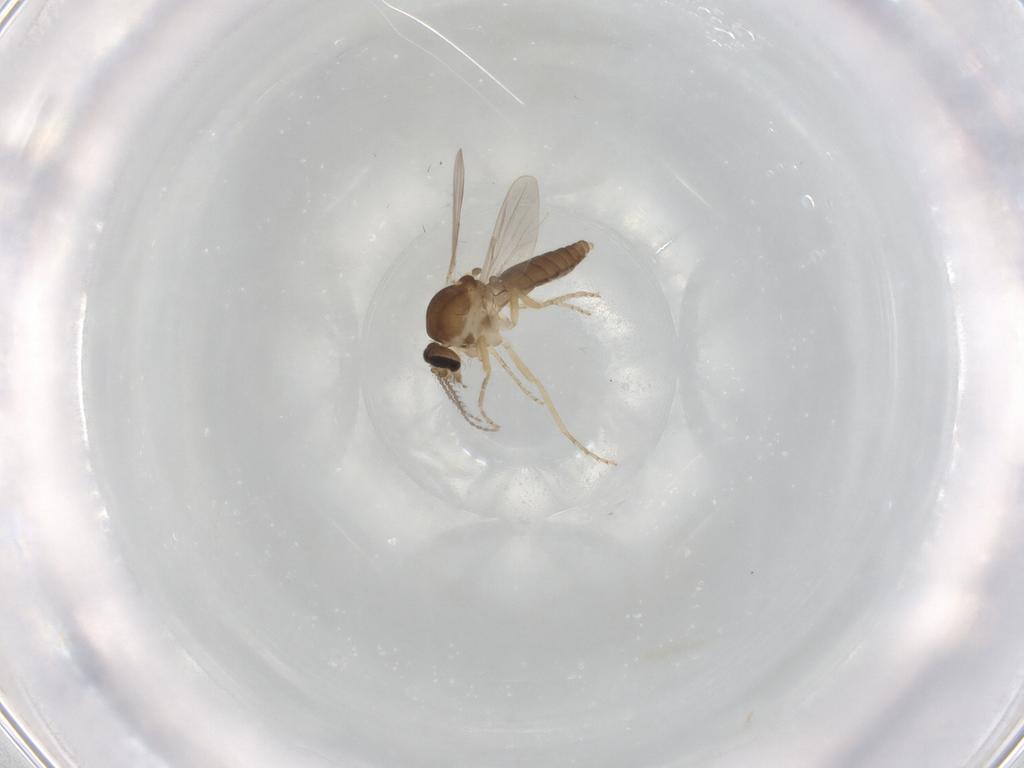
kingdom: Animalia
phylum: Arthropoda
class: Insecta
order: Diptera
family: Ceratopogonidae
